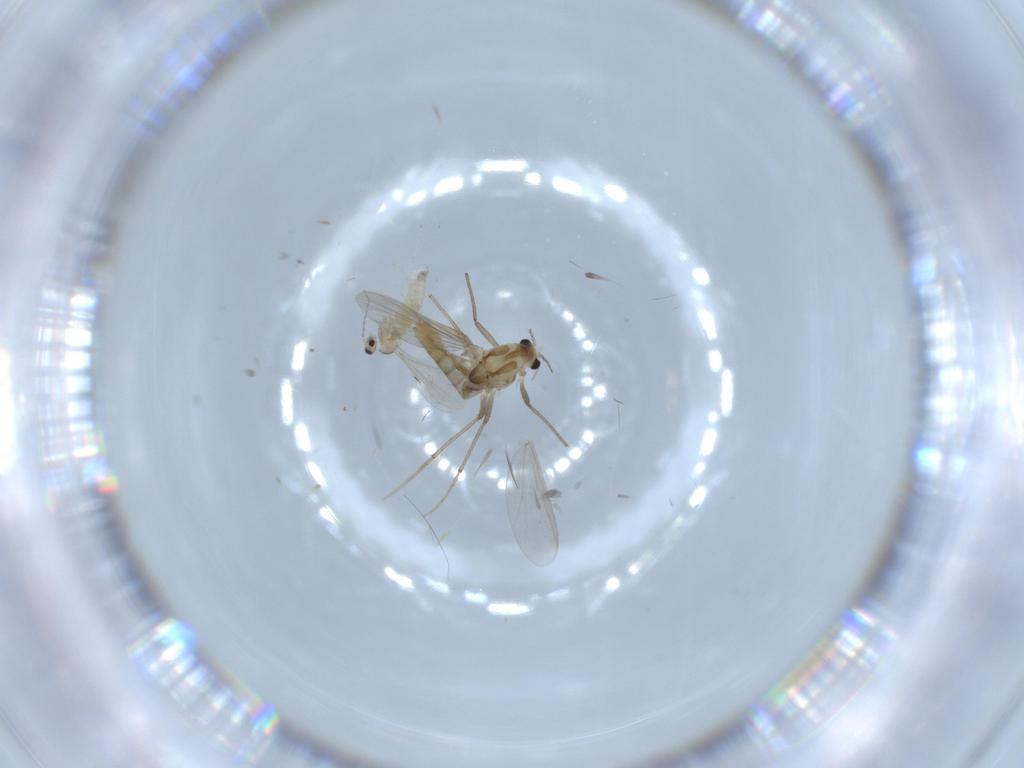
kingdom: Animalia
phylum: Arthropoda
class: Insecta
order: Diptera
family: Chironomidae
